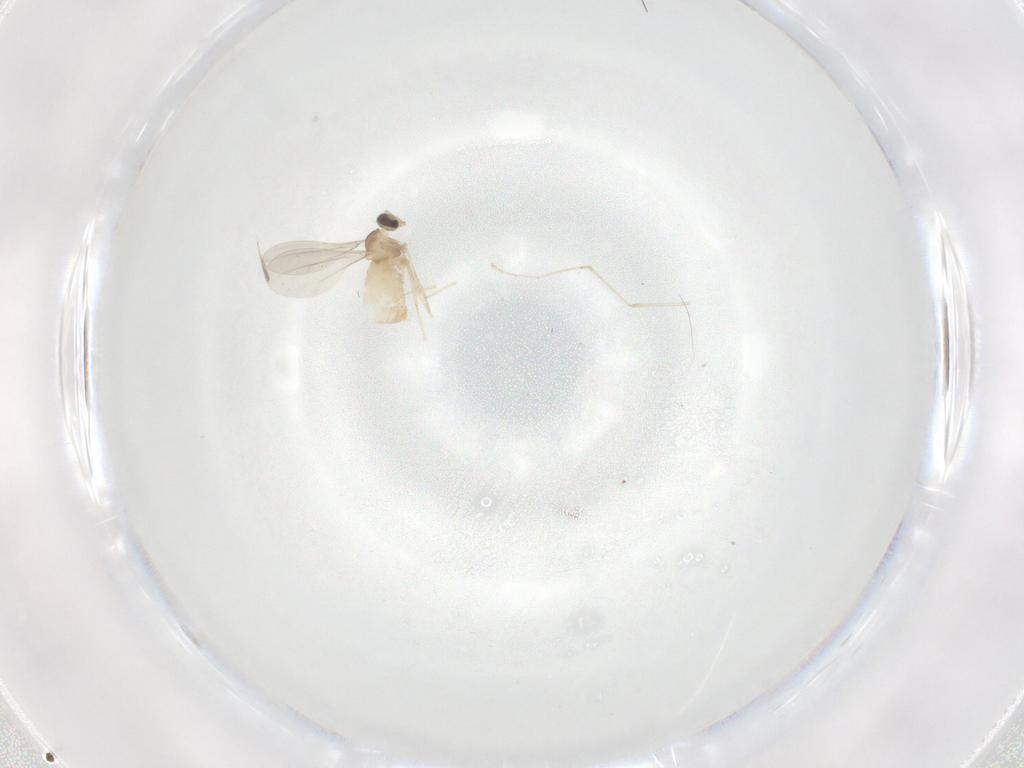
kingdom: Animalia
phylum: Arthropoda
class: Insecta
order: Diptera
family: Cecidomyiidae
